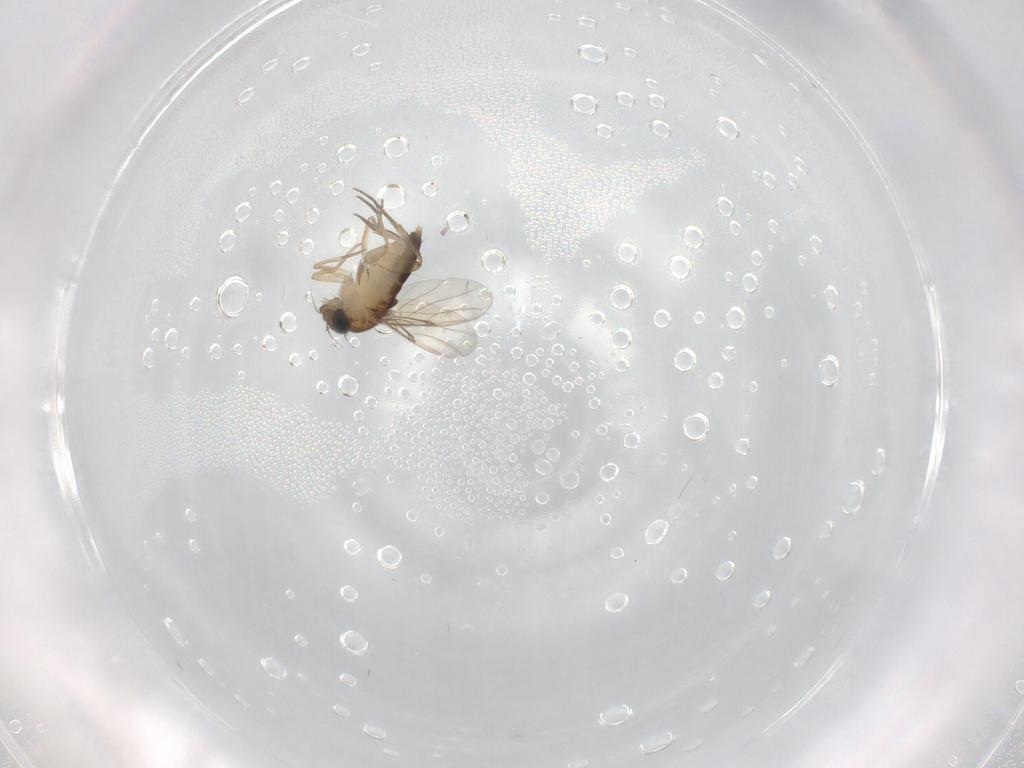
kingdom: Animalia
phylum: Arthropoda
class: Insecta
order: Diptera
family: Phoridae
